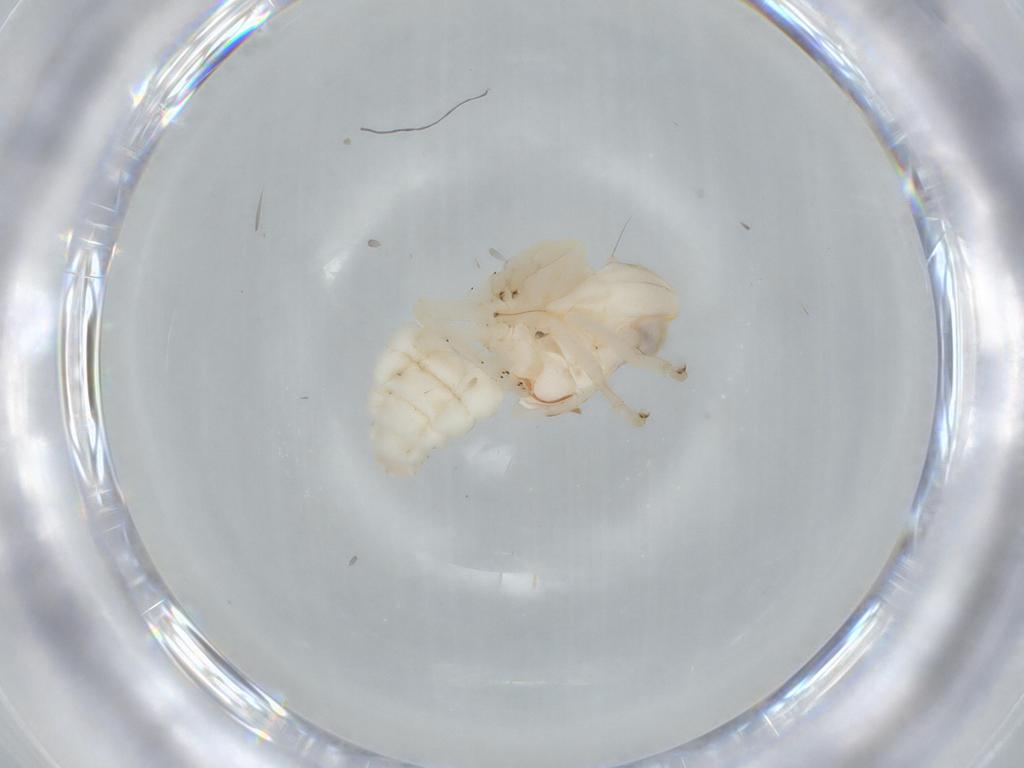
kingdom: Animalia
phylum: Arthropoda
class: Insecta
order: Hemiptera
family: Nogodinidae
